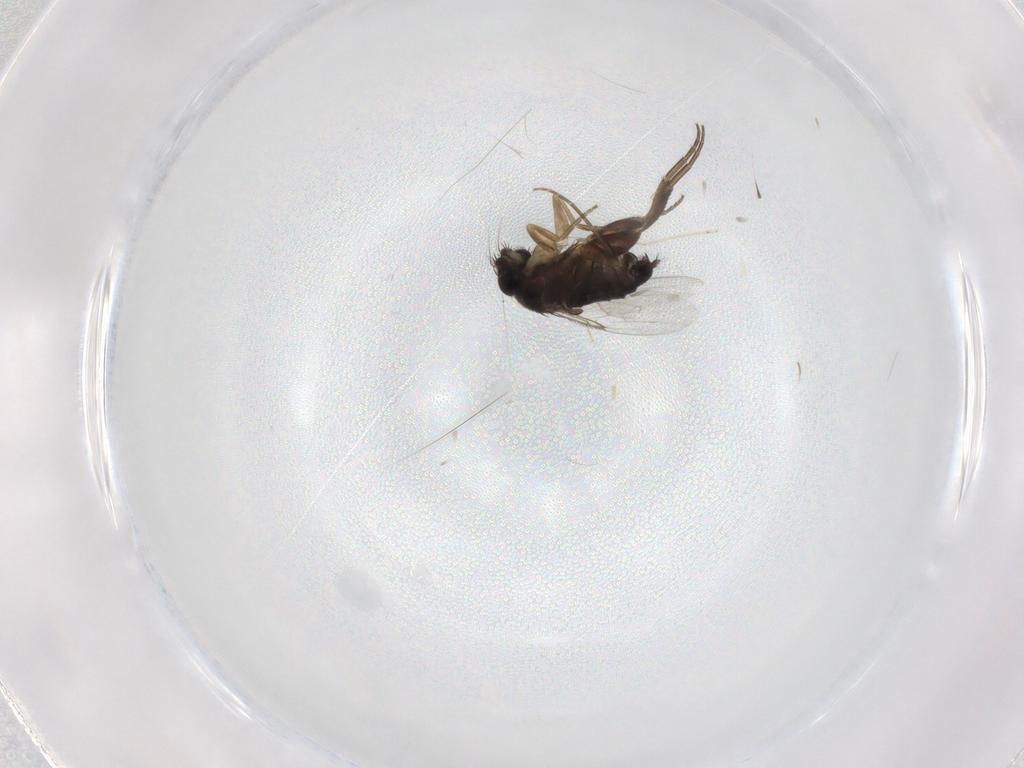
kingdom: Animalia
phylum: Arthropoda
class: Insecta
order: Diptera
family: Phoridae
